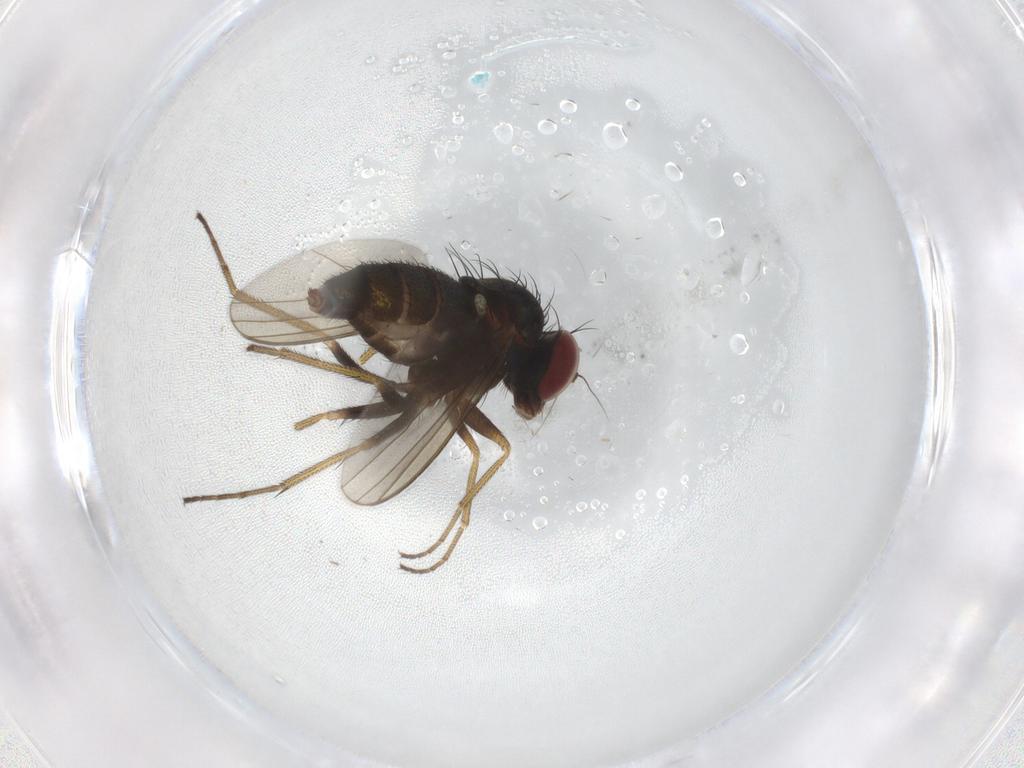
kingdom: Animalia
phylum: Arthropoda
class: Insecta
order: Diptera
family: Dolichopodidae
